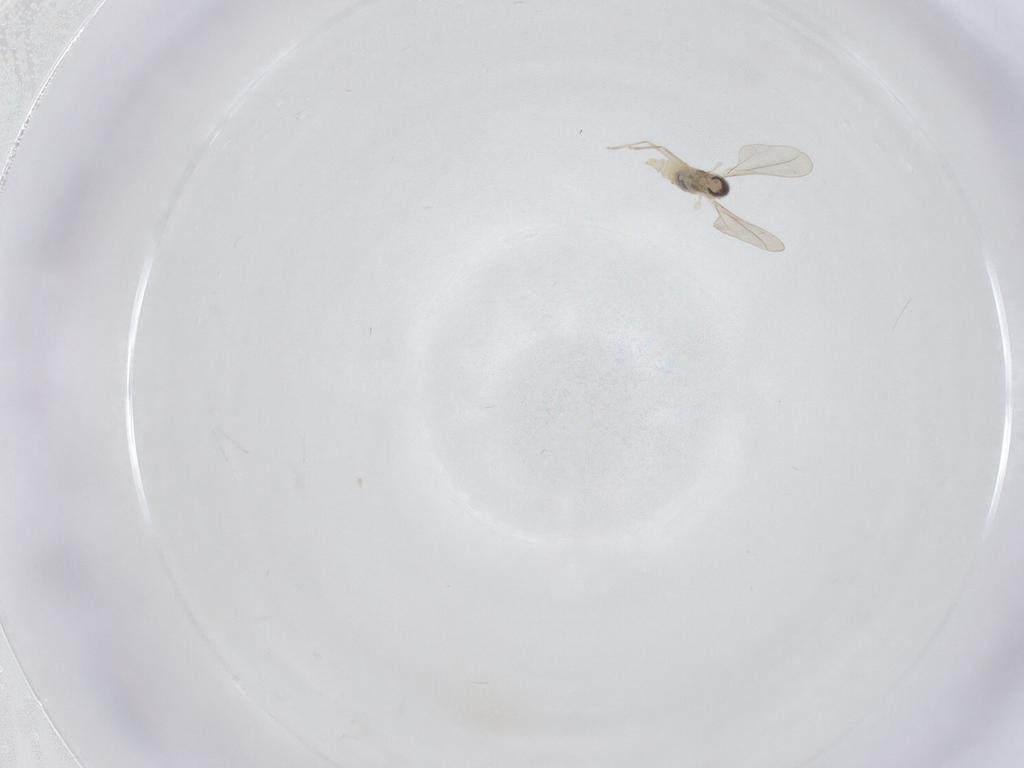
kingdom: Animalia
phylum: Arthropoda
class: Insecta
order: Diptera
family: Cecidomyiidae
